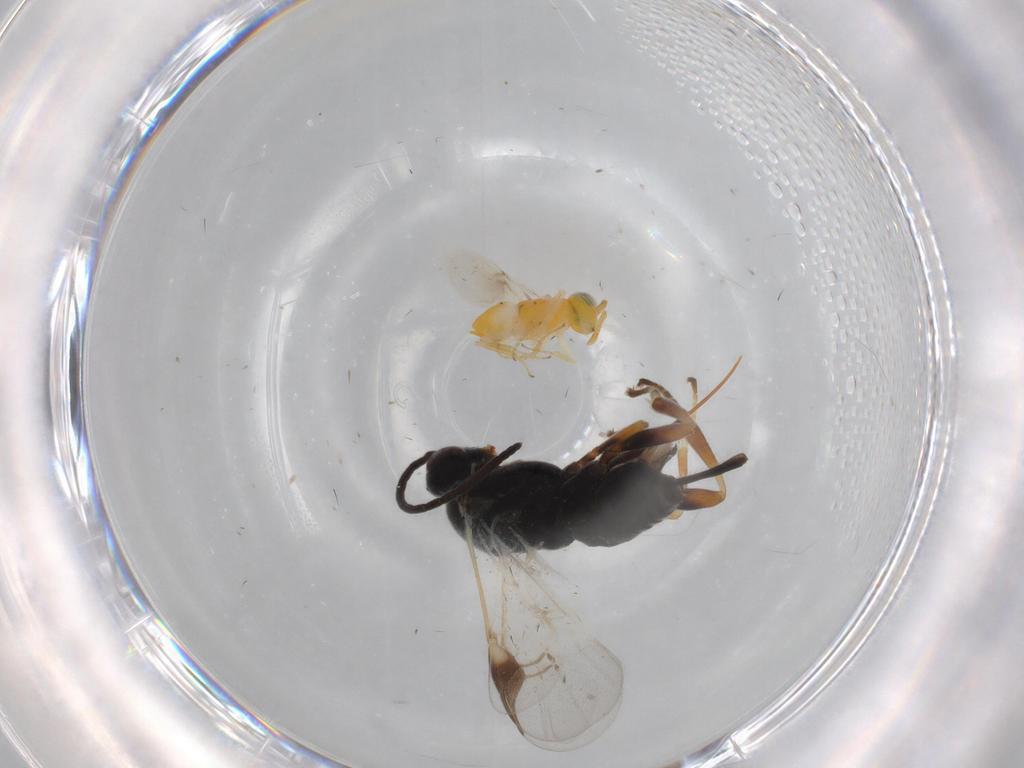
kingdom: Animalia
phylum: Arthropoda
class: Insecta
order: Hymenoptera
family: Braconidae
